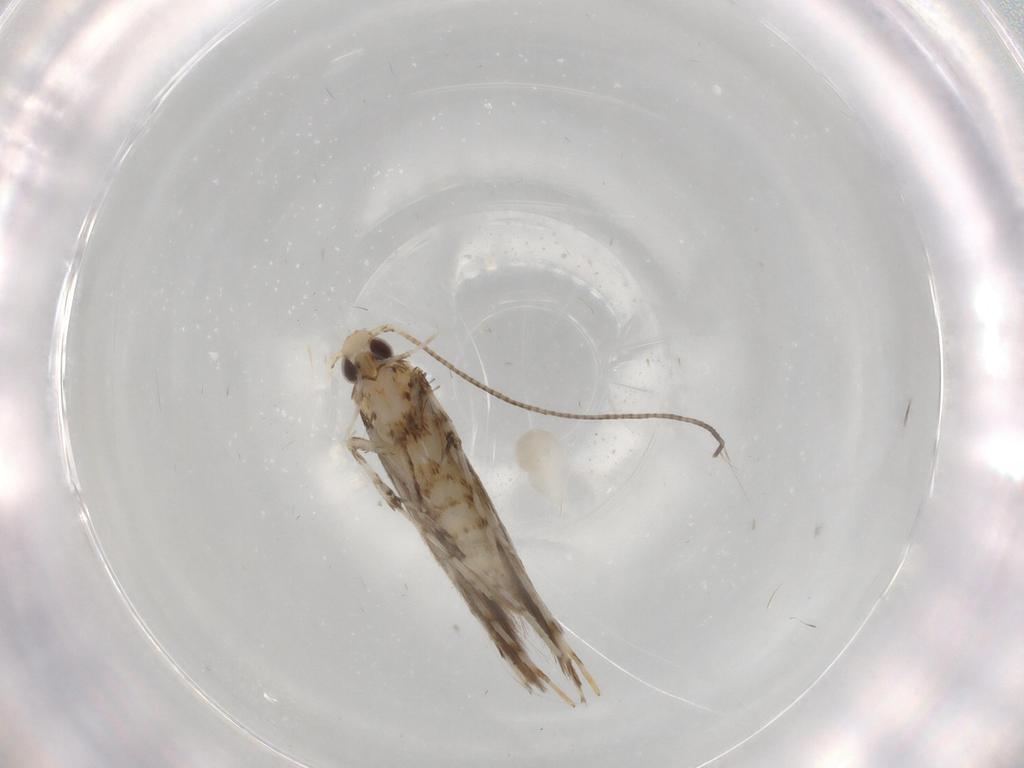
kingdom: Animalia
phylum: Arthropoda
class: Insecta
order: Lepidoptera
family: Gracillariidae
